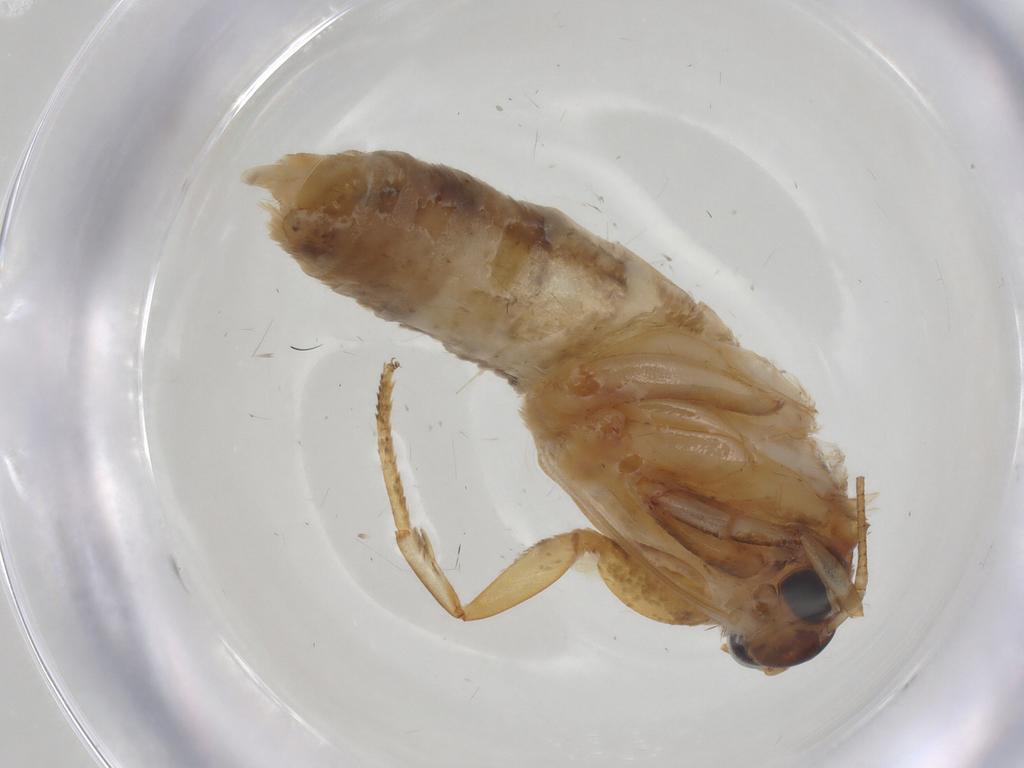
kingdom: Animalia
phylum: Arthropoda
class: Insecta
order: Lepidoptera
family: Oecophoridae
